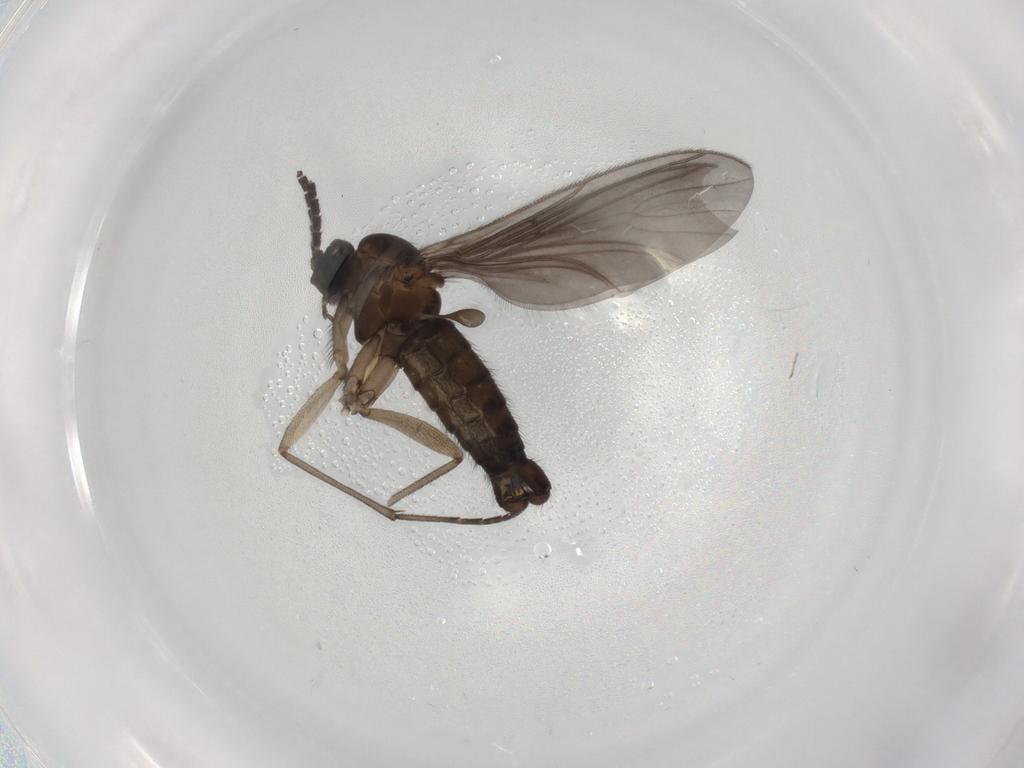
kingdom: Animalia
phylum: Arthropoda
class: Insecta
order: Diptera
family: Sciaridae
